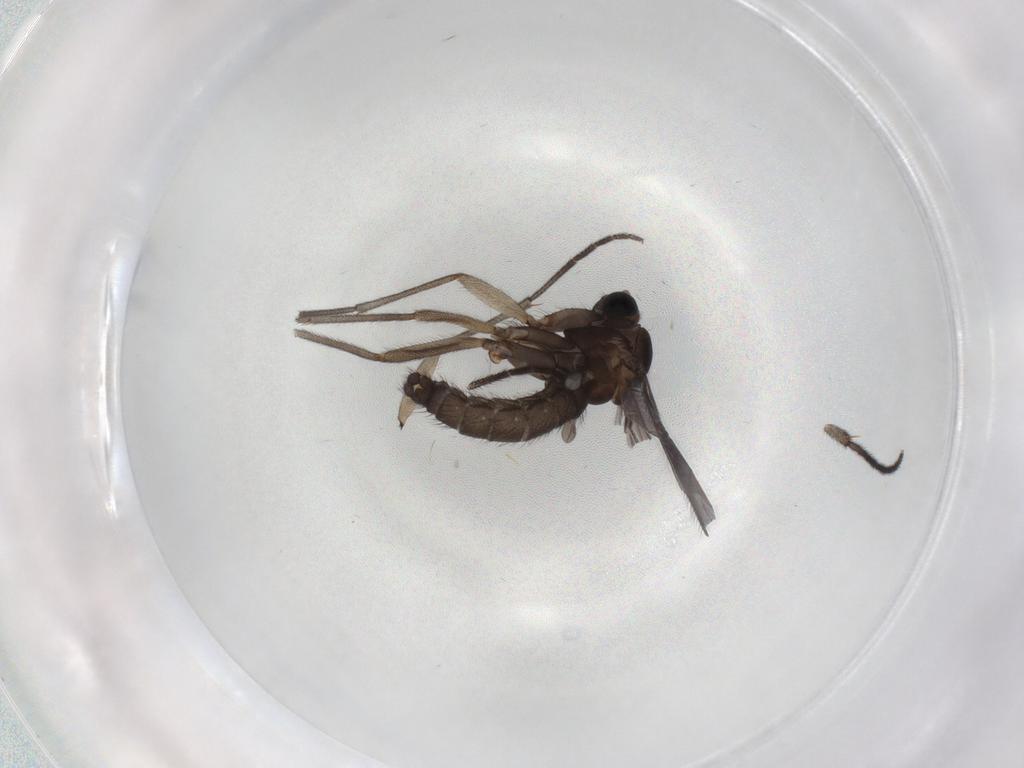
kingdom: Animalia
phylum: Arthropoda
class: Insecta
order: Diptera
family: Sciaridae
